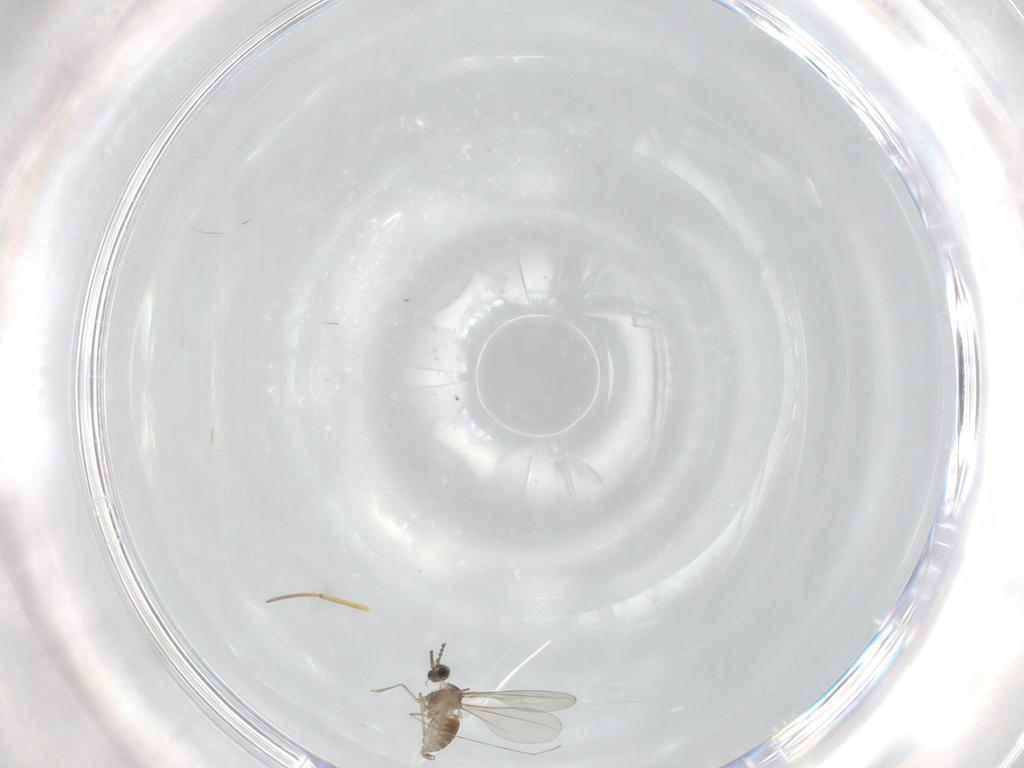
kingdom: Animalia
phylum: Arthropoda
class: Insecta
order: Diptera
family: Cecidomyiidae
